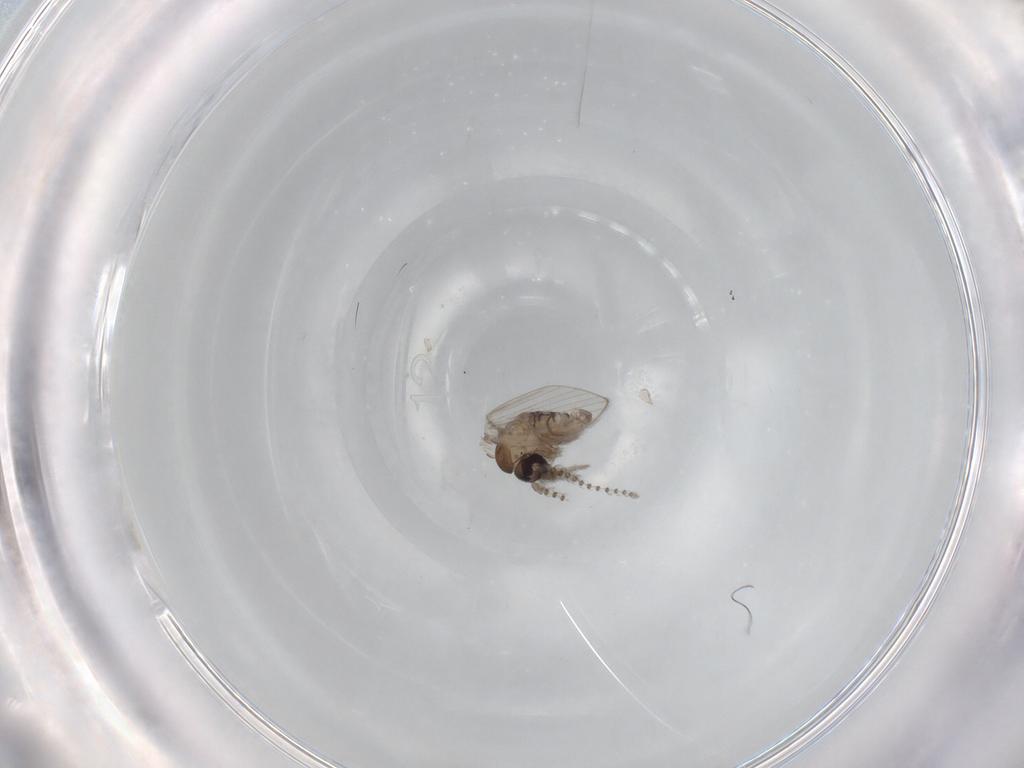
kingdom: Animalia
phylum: Arthropoda
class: Insecta
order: Diptera
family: Psychodidae
